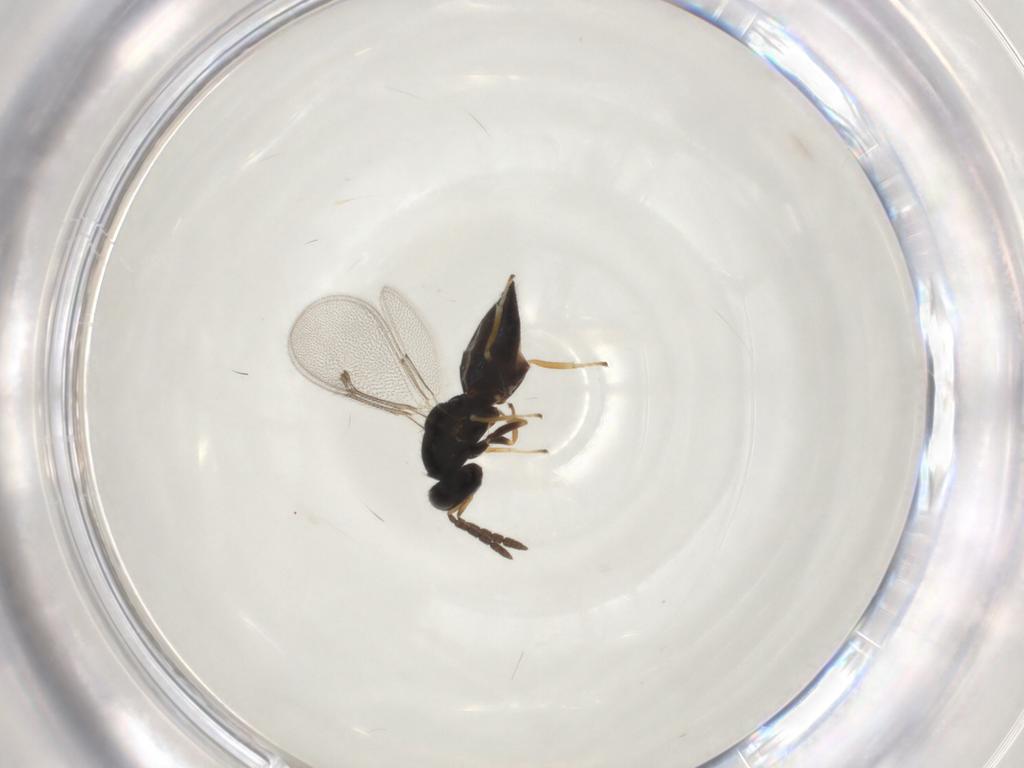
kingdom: Animalia
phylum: Arthropoda
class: Insecta
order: Hymenoptera
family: Eulophidae
